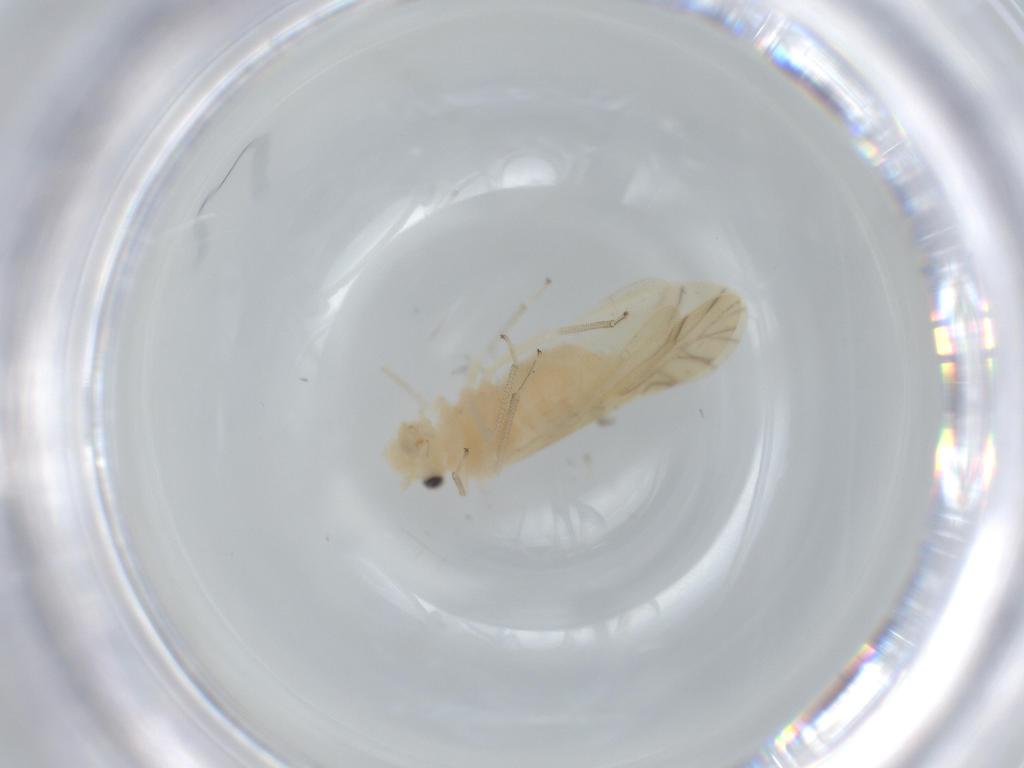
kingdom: Animalia
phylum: Arthropoda
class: Insecta
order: Psocodea
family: Caeciliusidae
